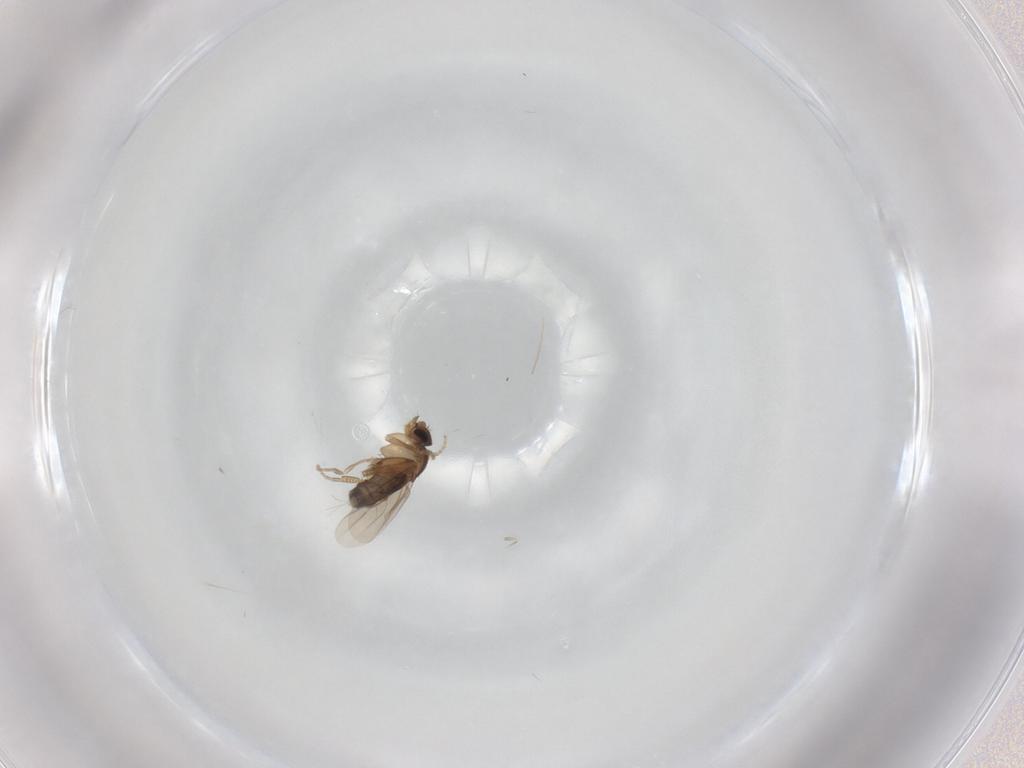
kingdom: Animalia
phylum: Arthropoda
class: Insecta
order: Diptera
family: Phoridae
